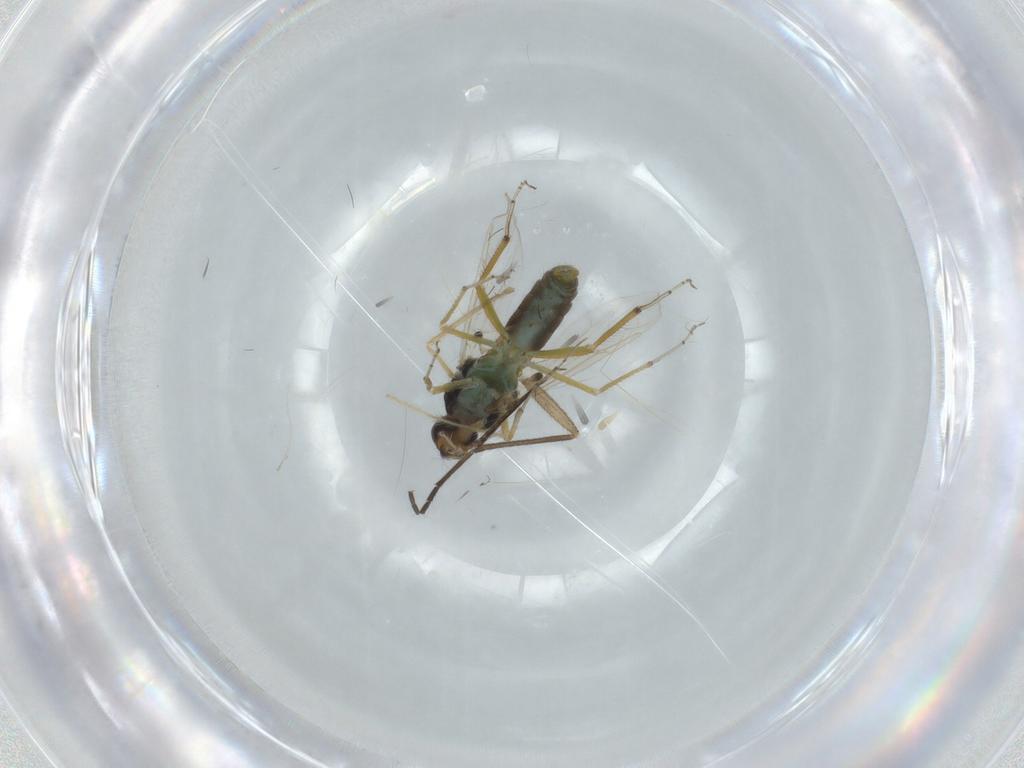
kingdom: Animalia
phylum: Arthropoda
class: Insecta
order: Diptera
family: Ceratopogonidae
